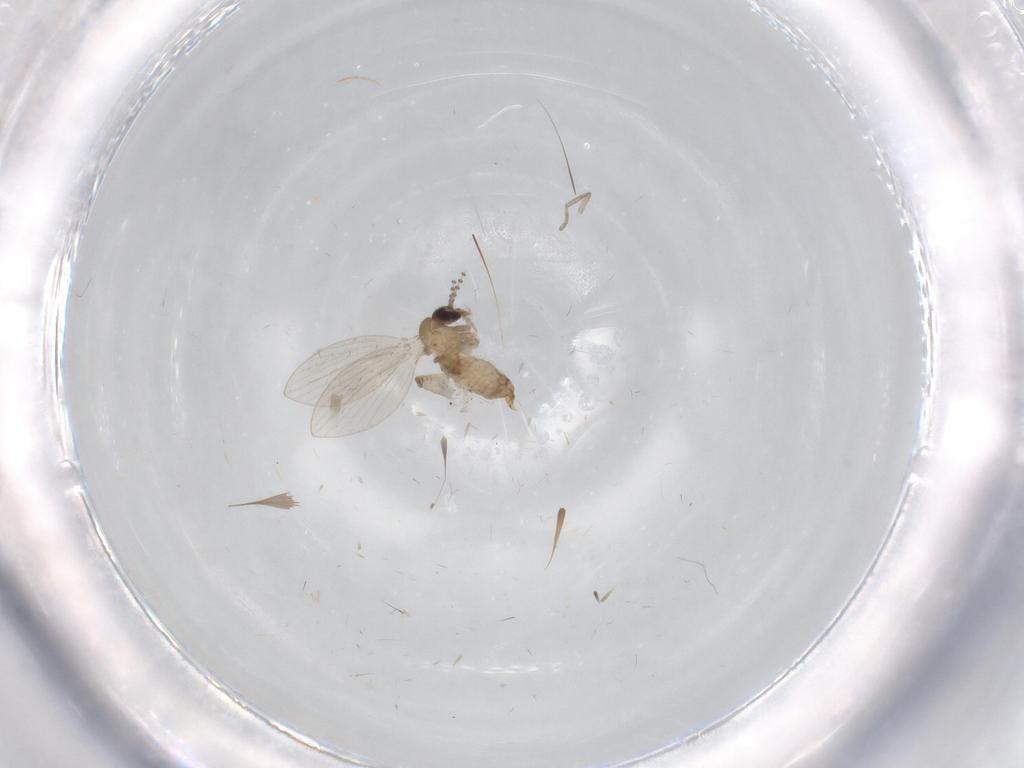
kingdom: Animalia
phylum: Arthropoda
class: Insecta
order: Diptera
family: Cecidomyiidae
